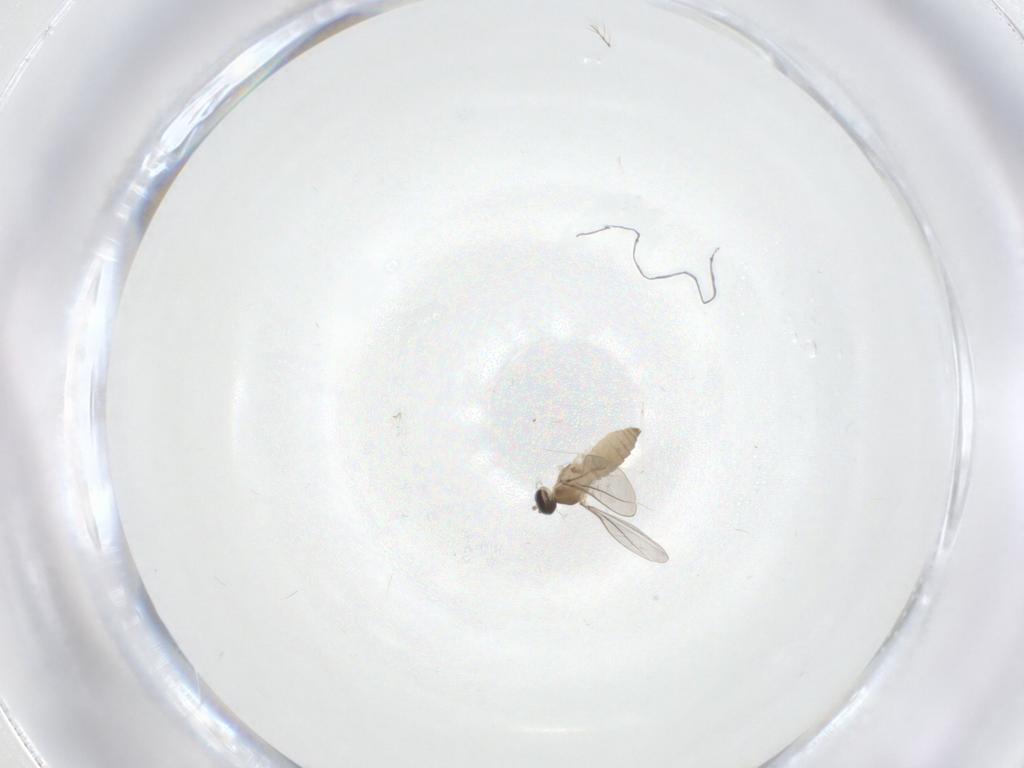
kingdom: Animalia
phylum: Arthropoda
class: Insecta
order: Diptera
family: Cecidomyiidae
